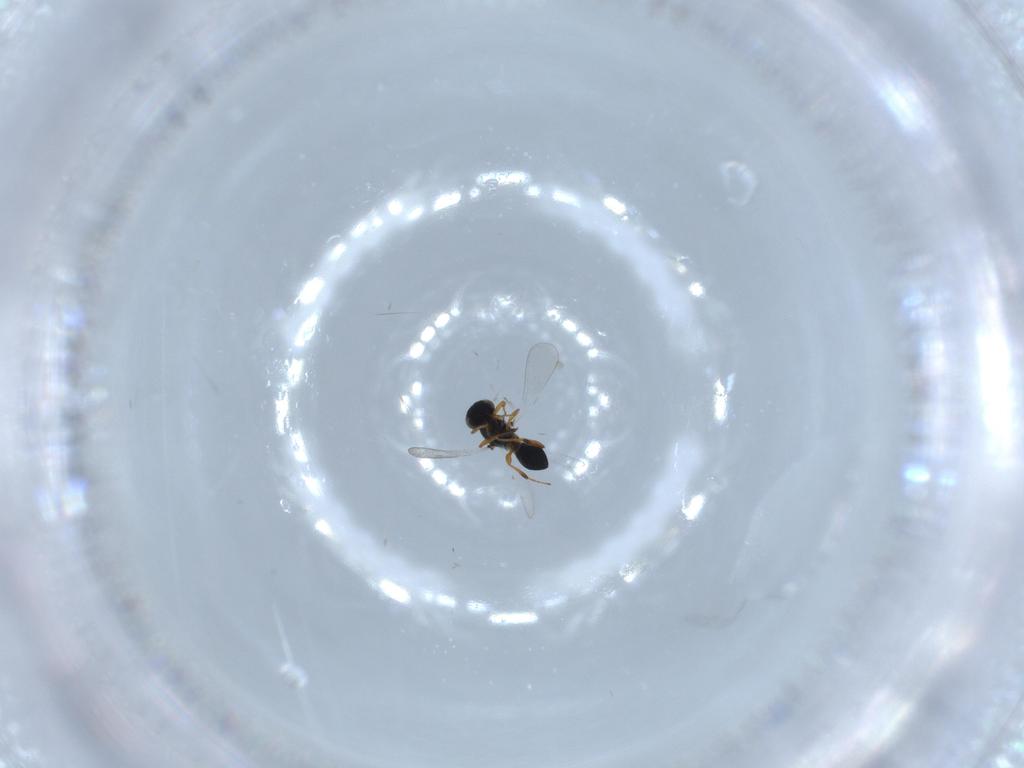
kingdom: Animalia
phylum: Arthropoda
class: Insecta
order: Hymenoptera
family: Platygastridae
